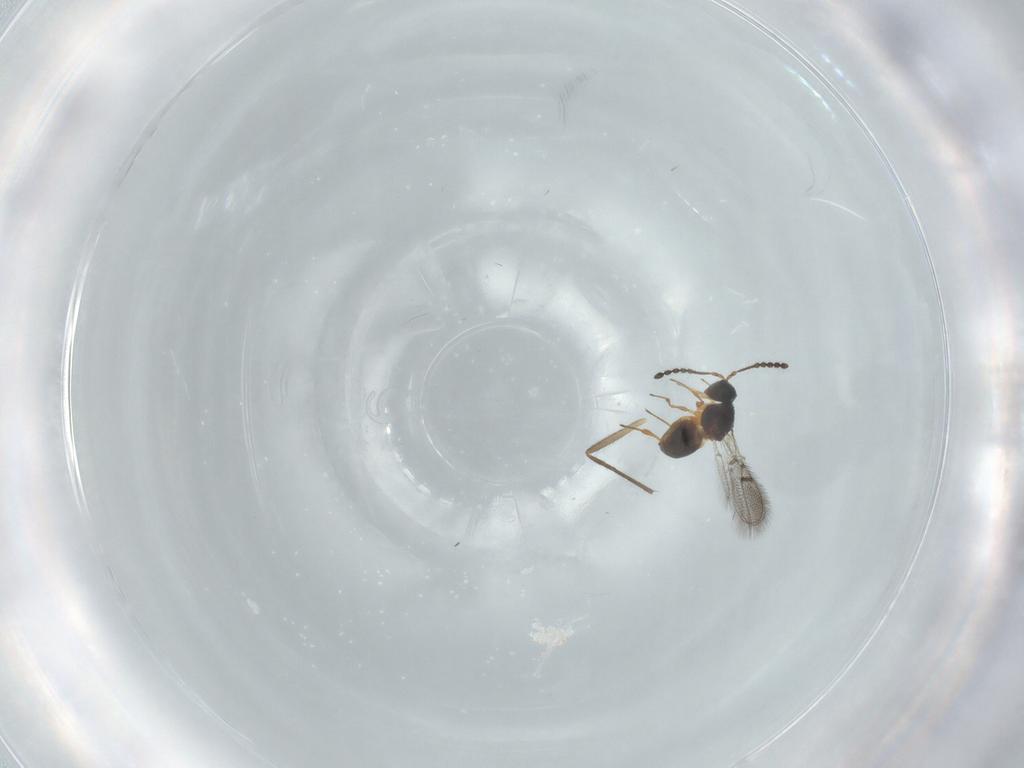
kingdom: Animalia
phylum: Arthropoda
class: Insecta
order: Hymenoptera
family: Figitidae
